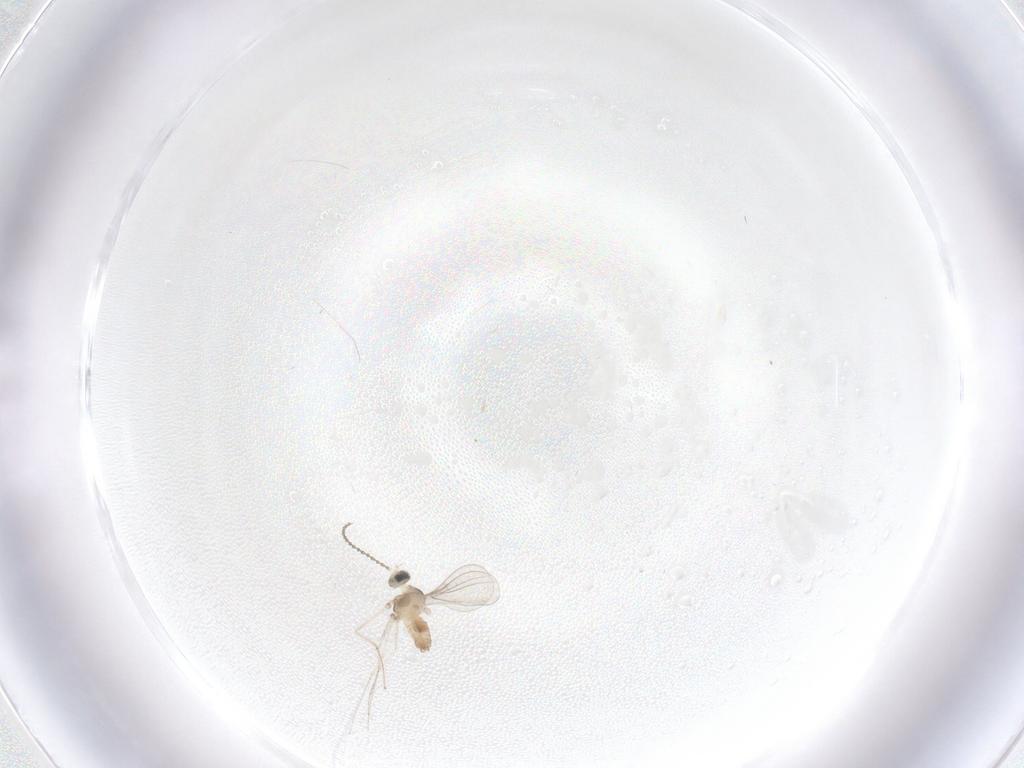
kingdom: Animalia
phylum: Arthropoda
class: Insecta
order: Diptera
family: Cecidomyiidae
